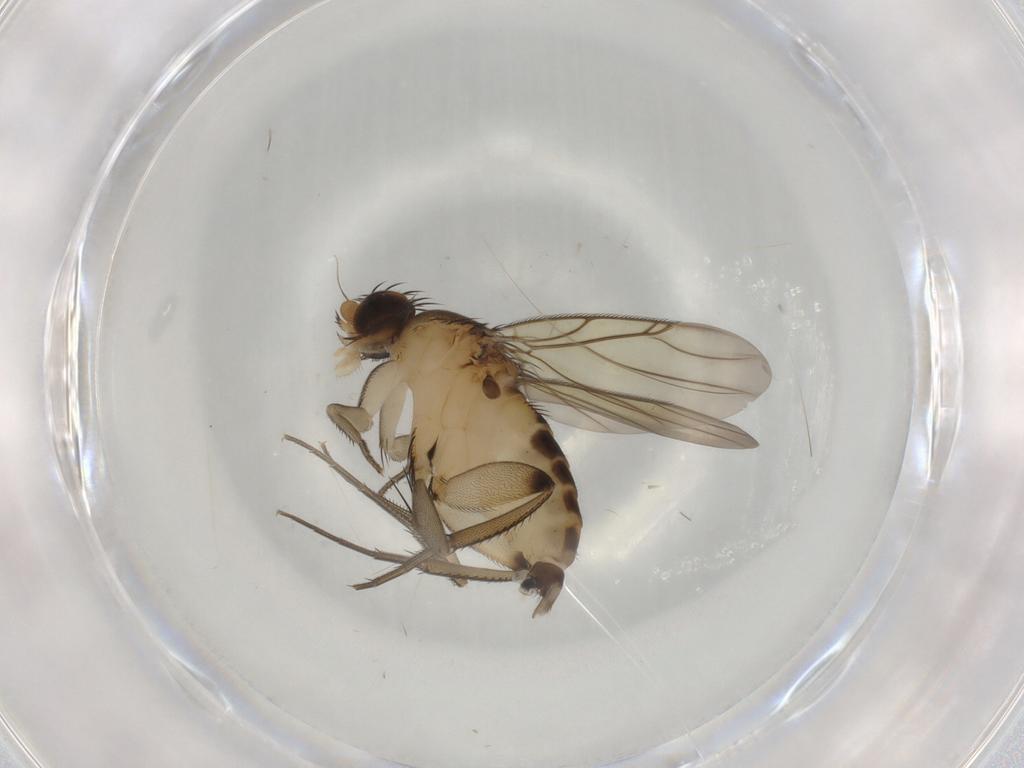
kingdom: Animalia
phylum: Arthropoda
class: Insecta
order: Diptera
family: Phoridae
